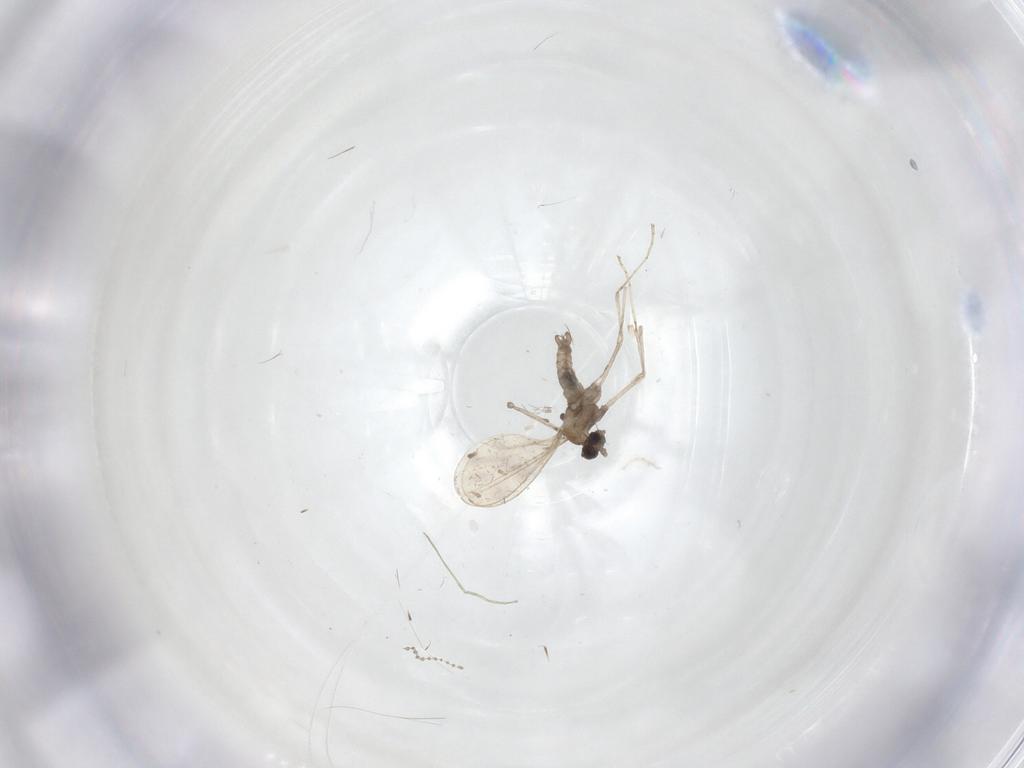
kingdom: Animalia
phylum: Arthropoda
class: Insecta
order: Diptera
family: Cecidomyiidae
